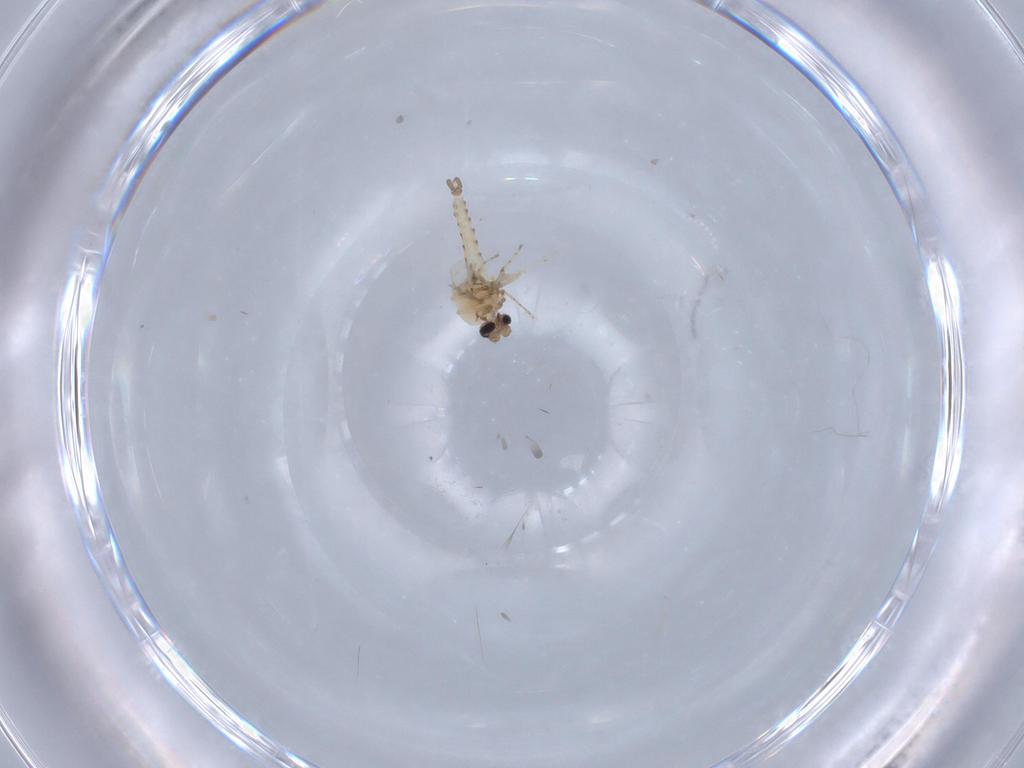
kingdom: Animalia
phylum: Arthropoda
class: Insecta
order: Diptera
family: Ceratopogonidae
